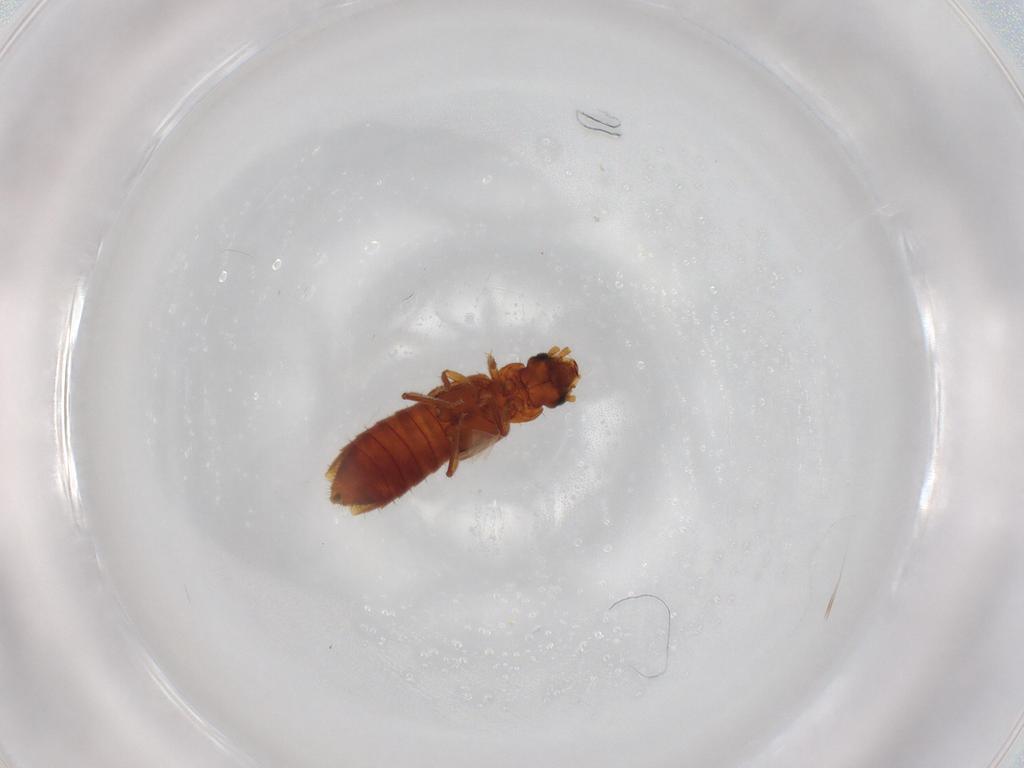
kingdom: Animalia
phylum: Arthropoda
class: Insecta
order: Coleoptera
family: Staphylinidae
